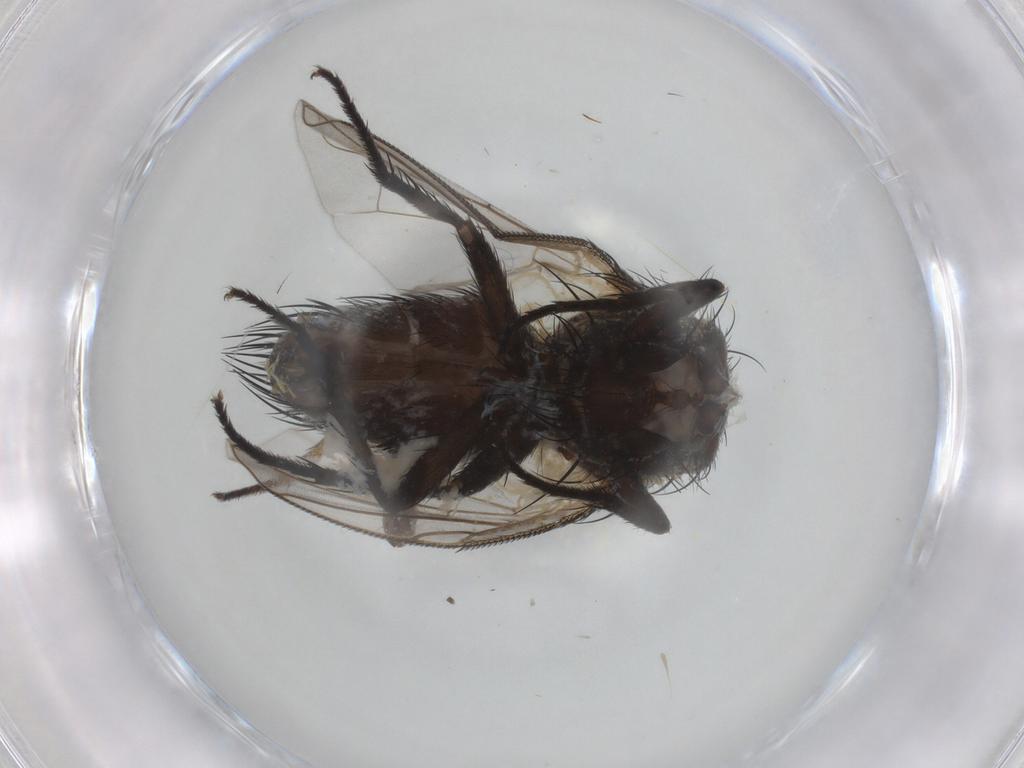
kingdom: Animalia
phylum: Arthropoda
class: Insecta
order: Diptera
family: Tachinidae
